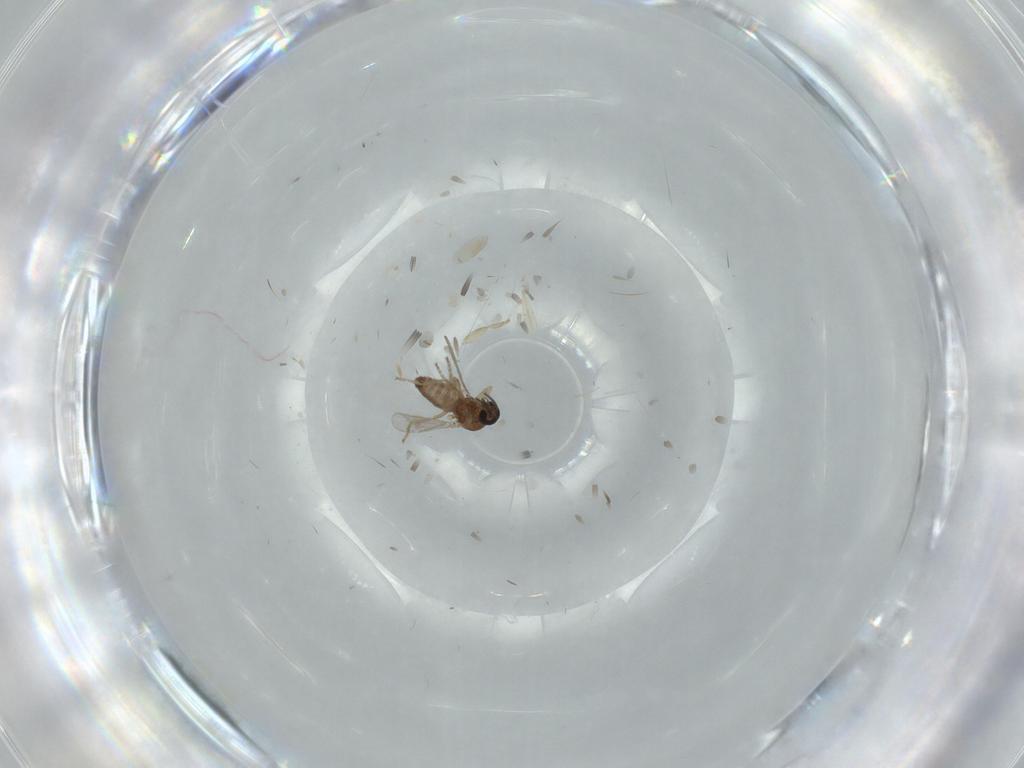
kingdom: Animalia
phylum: Arthropoda
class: Insecta
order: Diptera
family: Ceratopogonidae
